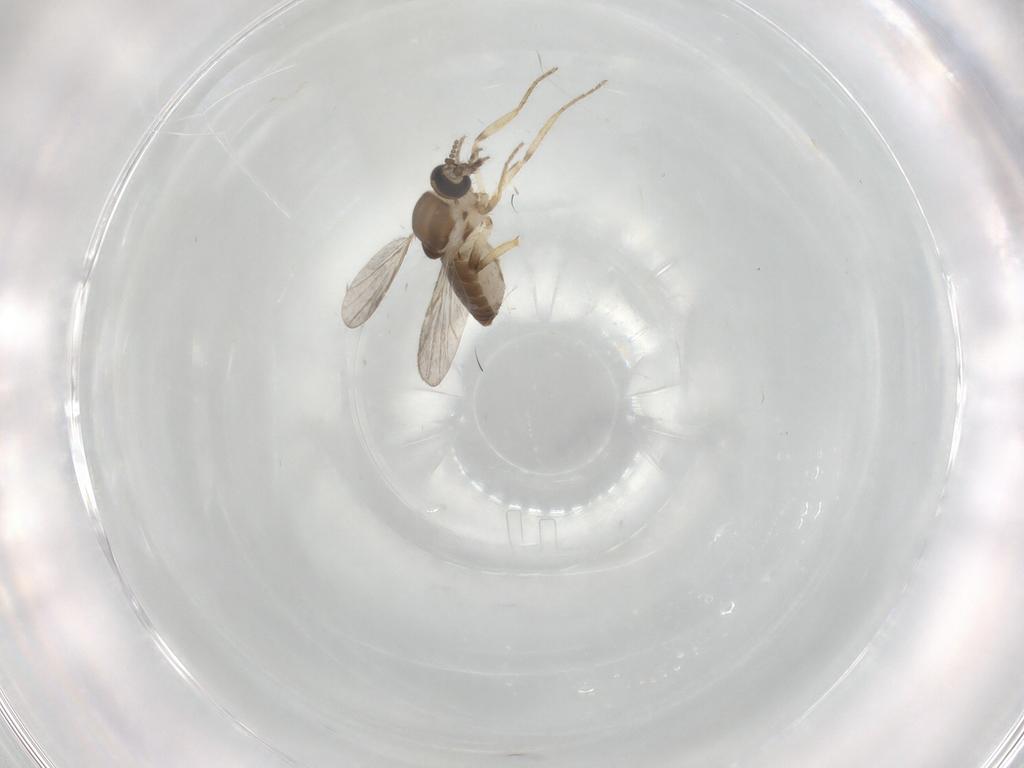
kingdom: Animalia
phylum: Arthropoda
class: Insecta
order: Diptera
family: Ceratopogonidae
